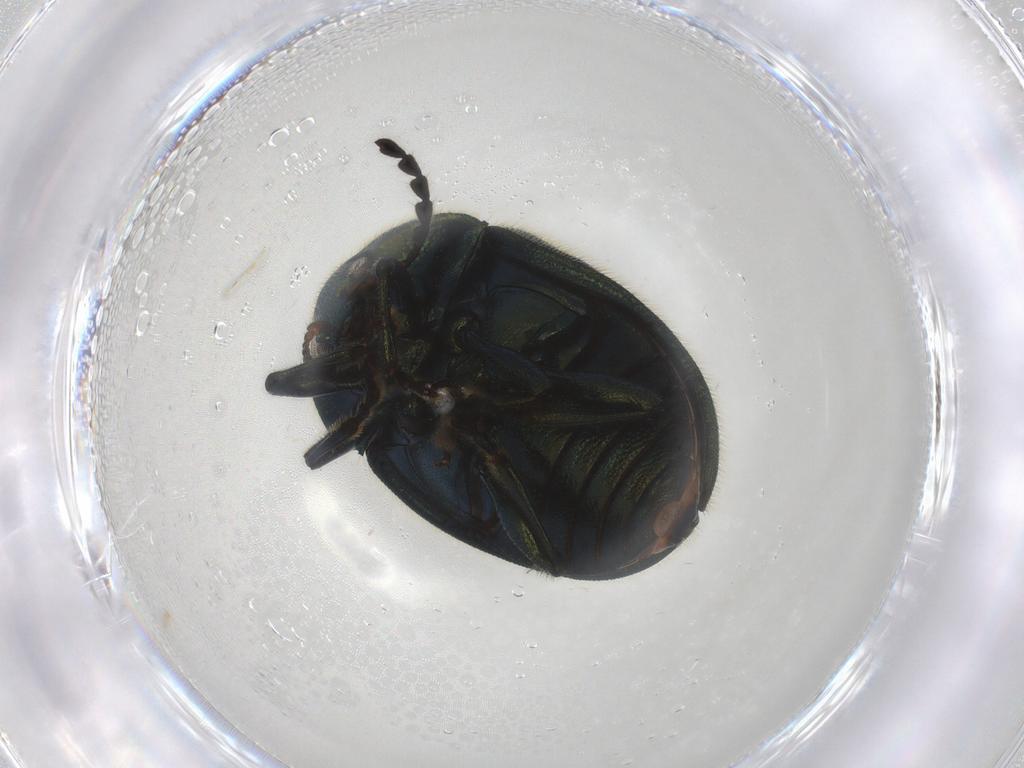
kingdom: Animalia
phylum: Arthropoda
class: Insecta
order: Coleoptera
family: Chrysomelidae
